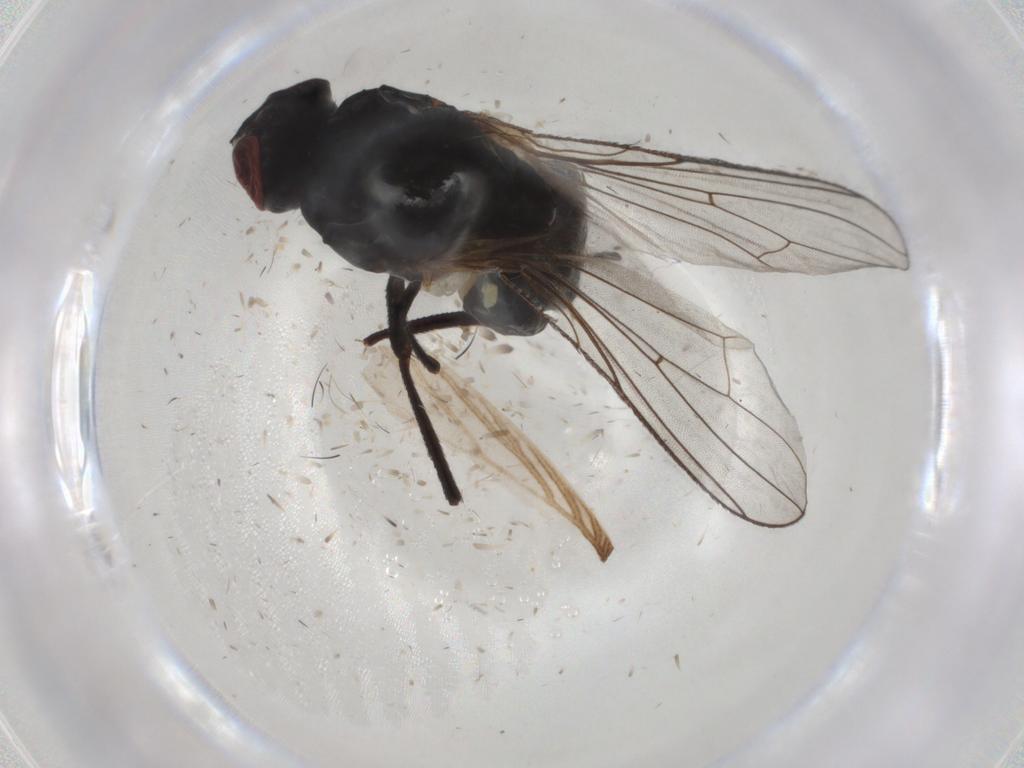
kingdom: Animalia
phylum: Arthropoda
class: Insecta
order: Diptera
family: Anthomyiidae
